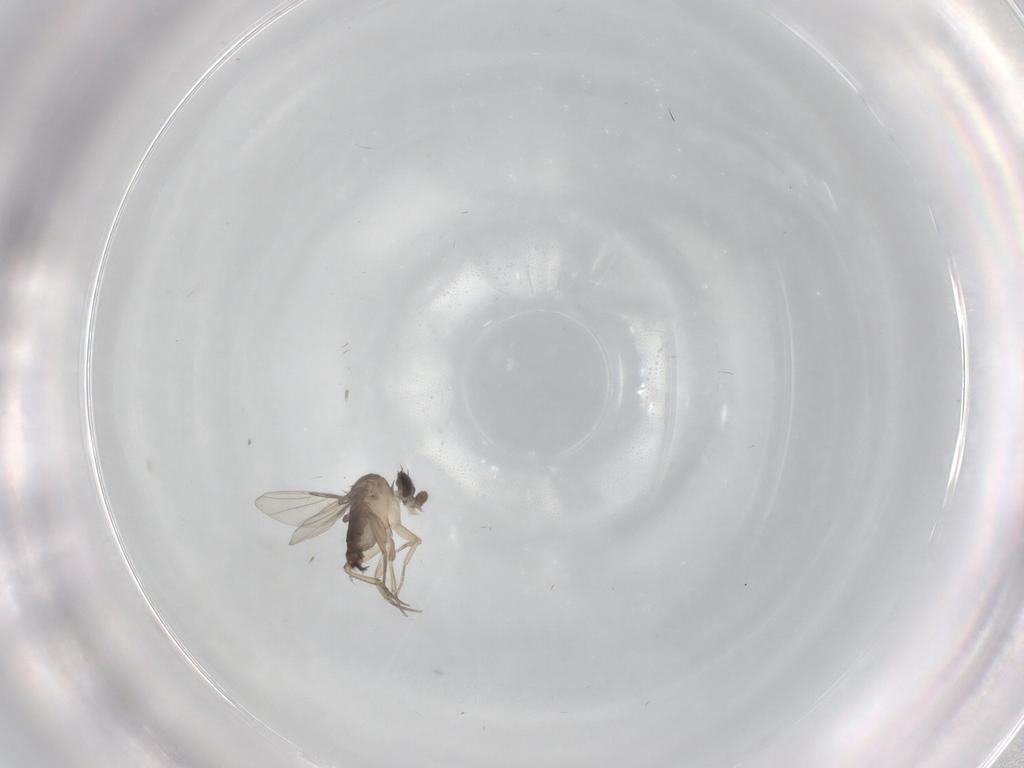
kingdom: Animalia
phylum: Arthropoda
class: Insecta
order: Diptera
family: Phoridae
